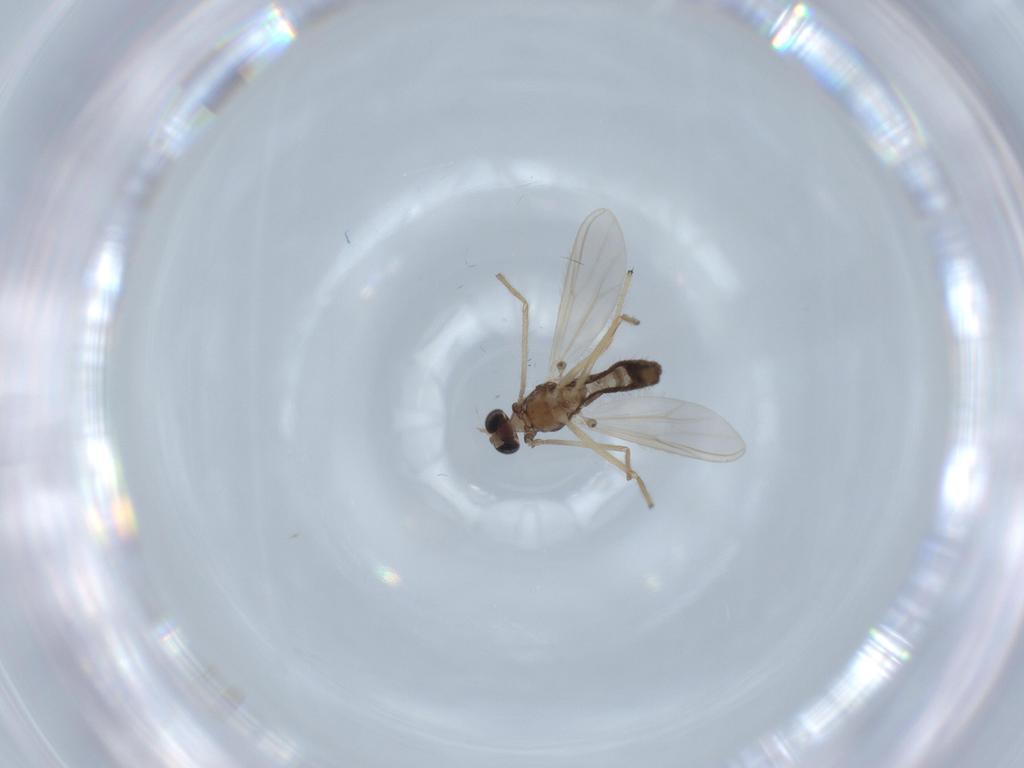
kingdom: Animalia
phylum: Arthropoda
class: Insecta
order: Diptera
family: Chironomidae
